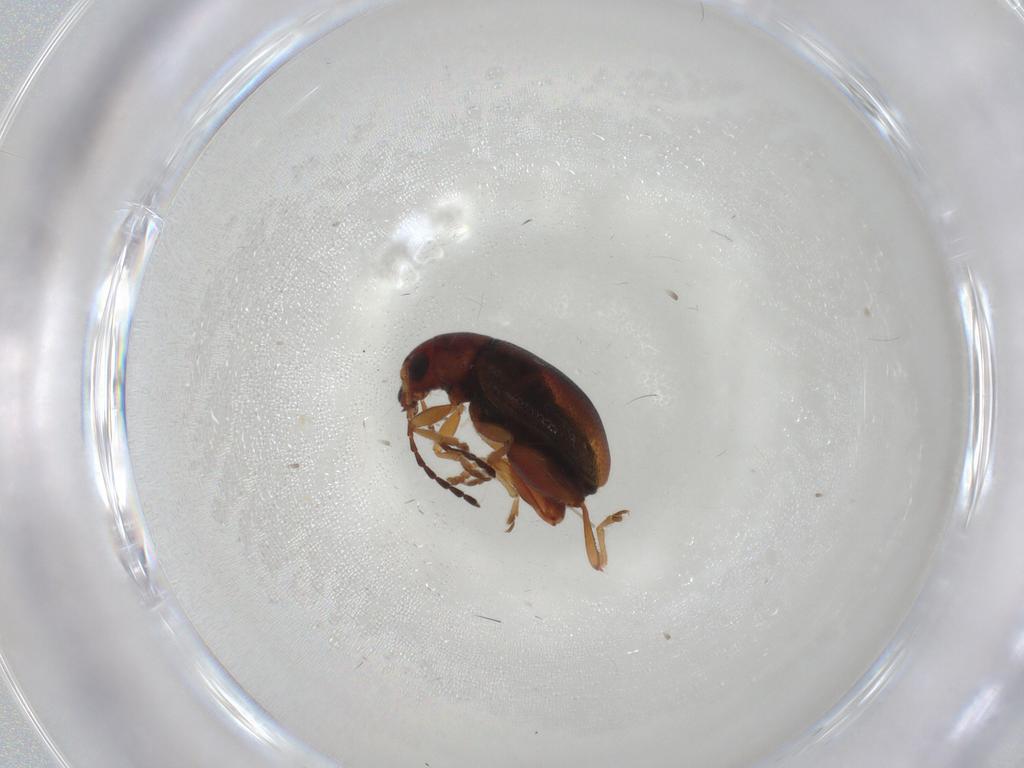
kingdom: Animalia
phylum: Arthropoda
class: Insecta
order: Coleoptera
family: Chrysomelidae
